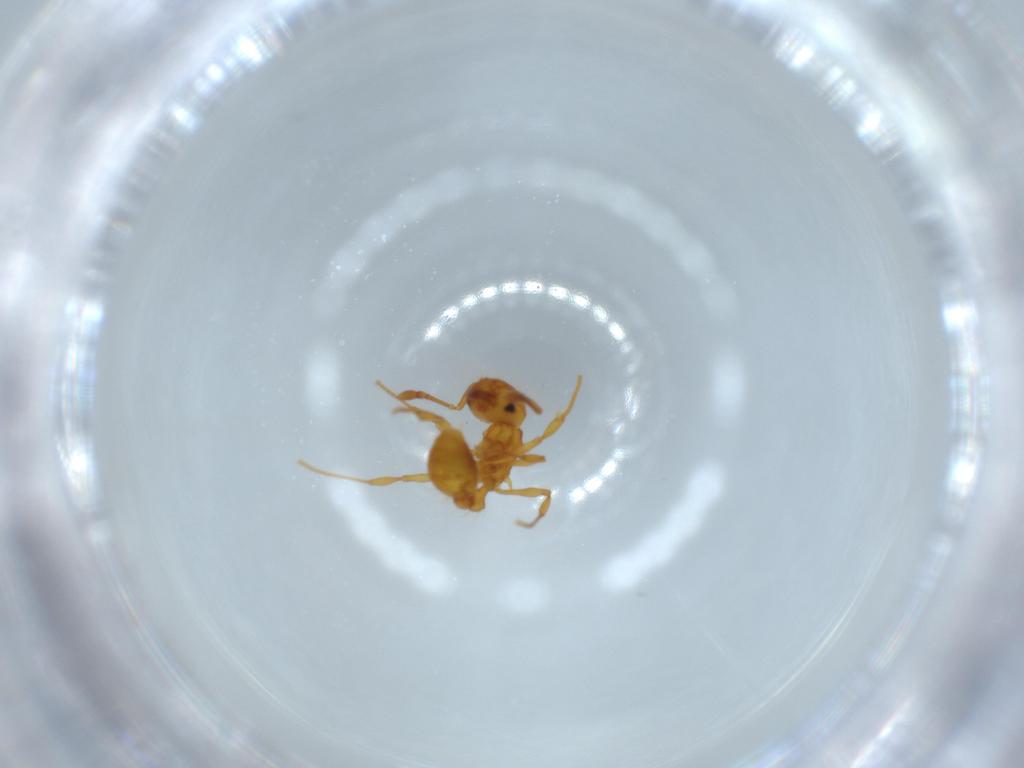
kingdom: Animalia
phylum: Arthropoda
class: Insecta
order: Hymenoptera
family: Formicidae
